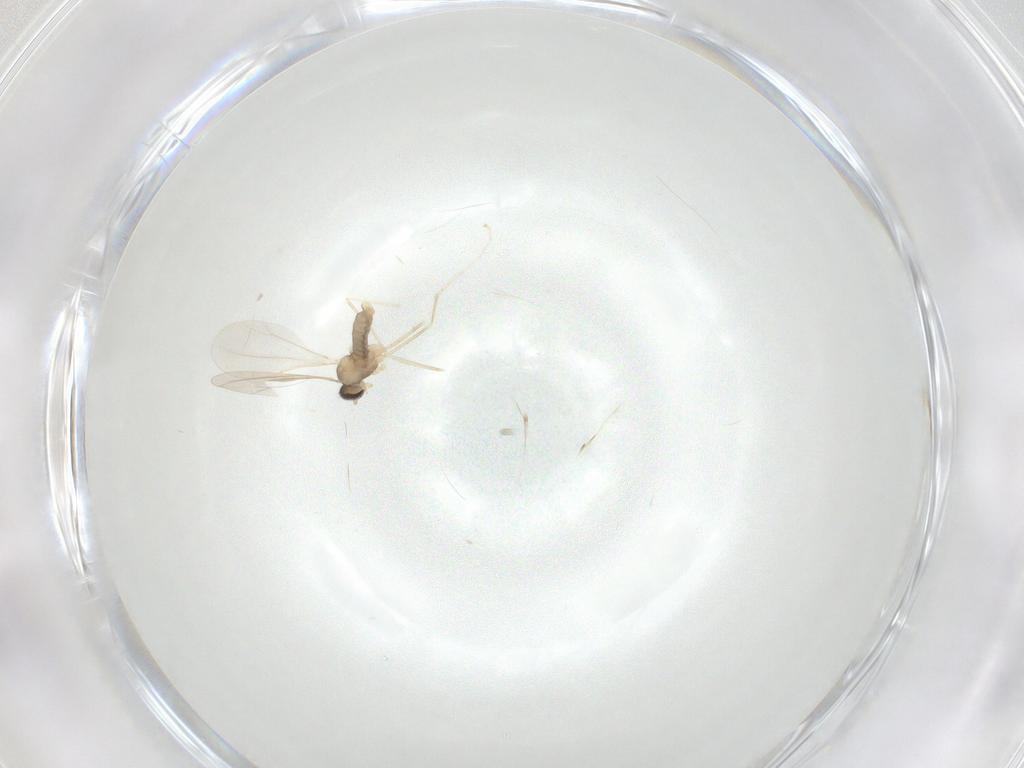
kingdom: Animalia
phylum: Arthropoda
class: Insecta
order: Diptera
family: Cecidomyiidae
